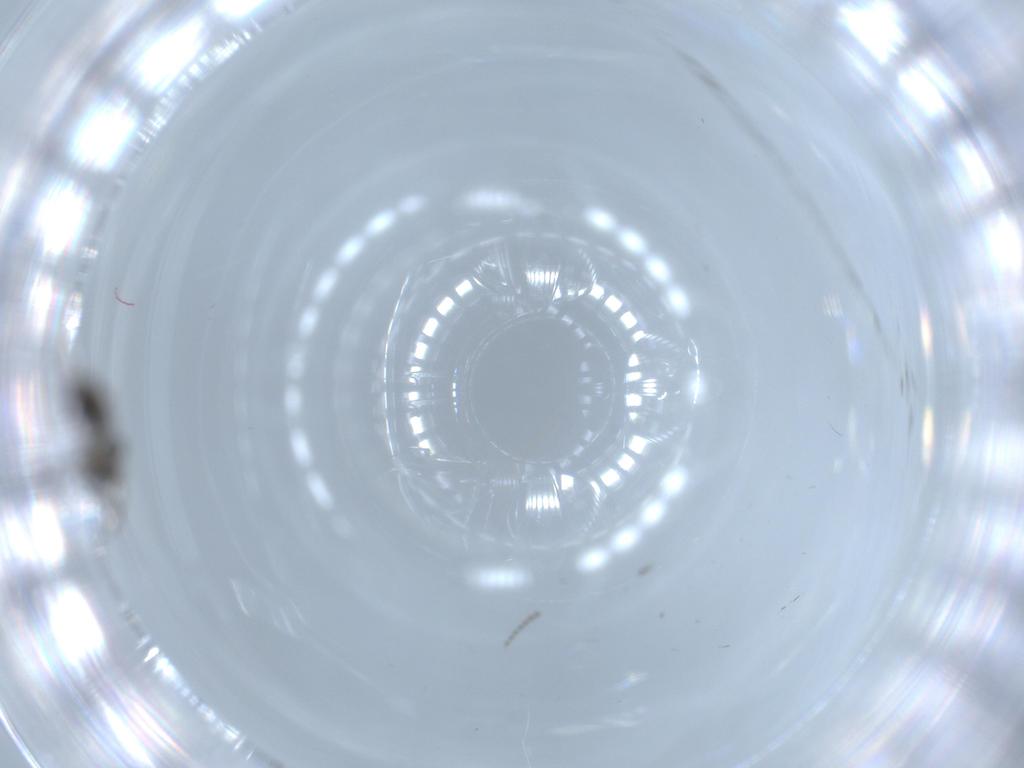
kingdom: Animalia
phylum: Arthropoda
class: Insecta
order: Diptera
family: Phoridae
